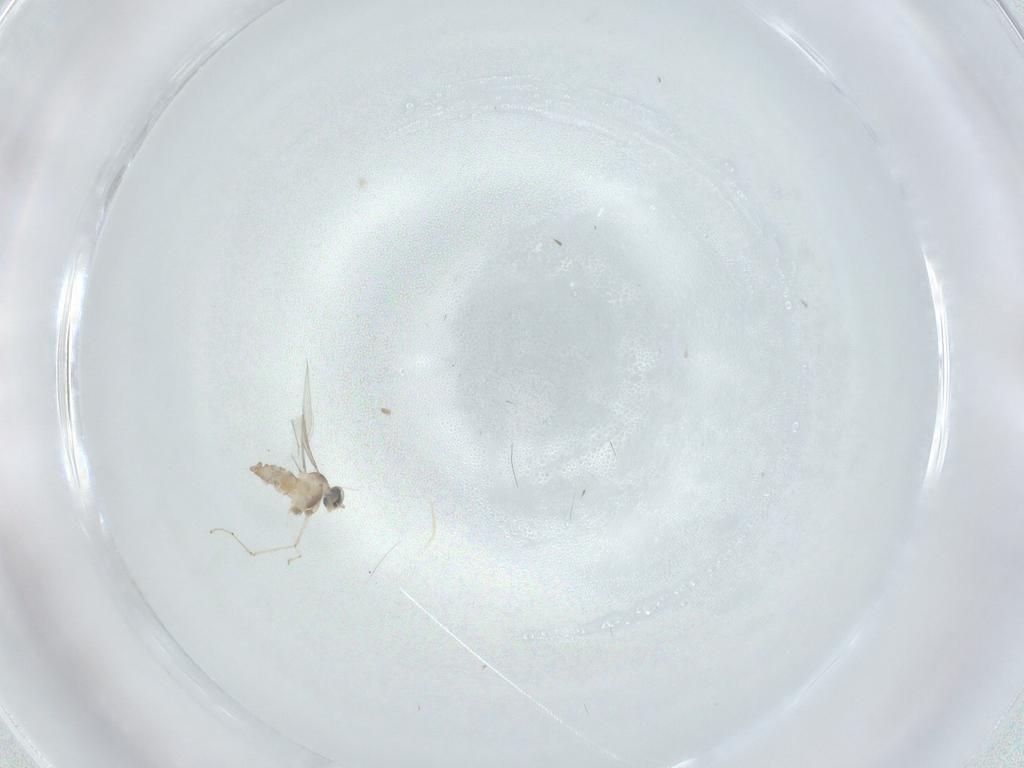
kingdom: Animalia
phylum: Arthropoda
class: Insecta
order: Diptera
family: Cecidomyiidae
